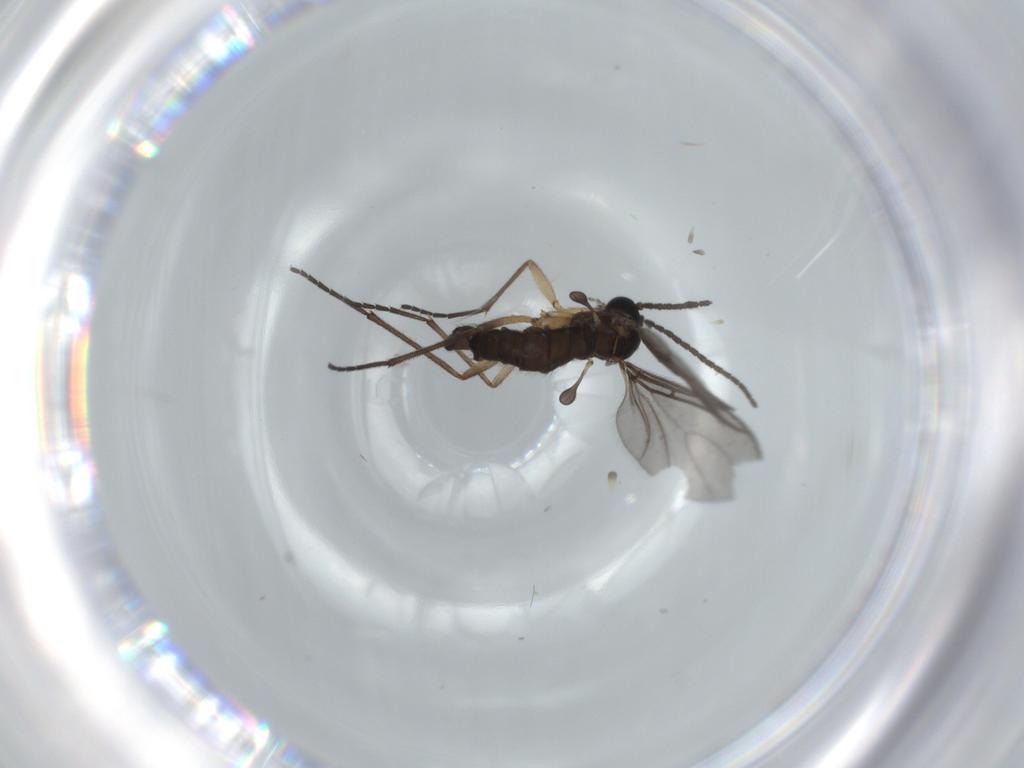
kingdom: Animalia
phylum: Arthropoda
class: Insecta
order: Diptera
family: Sciaridae
